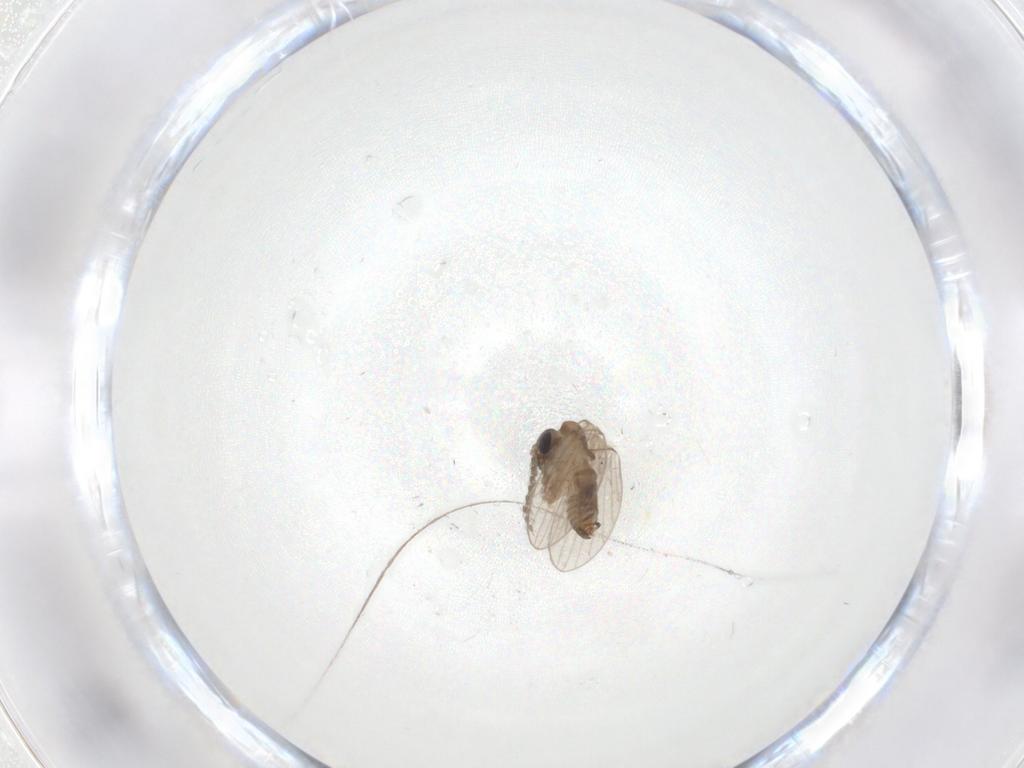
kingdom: Animalia
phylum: Arthropoda
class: Insecta
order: Diptera
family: Psychodidae
